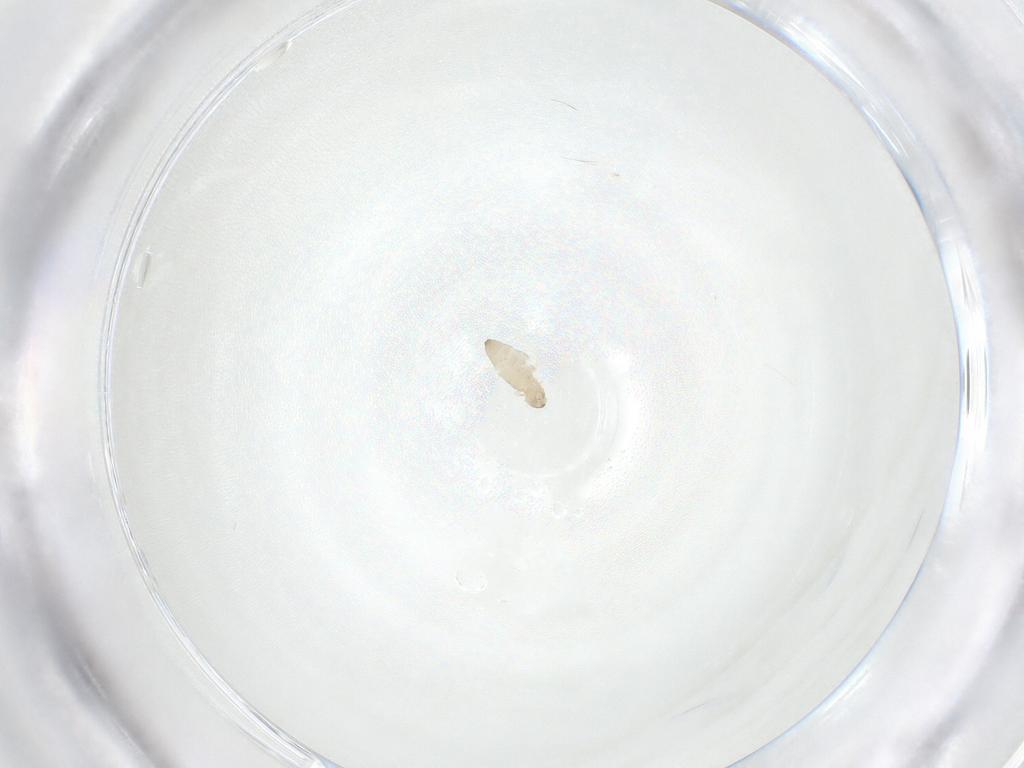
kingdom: Animalia
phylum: Arthropoda
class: Insecta
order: Diptera
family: Cecidomyiidae
